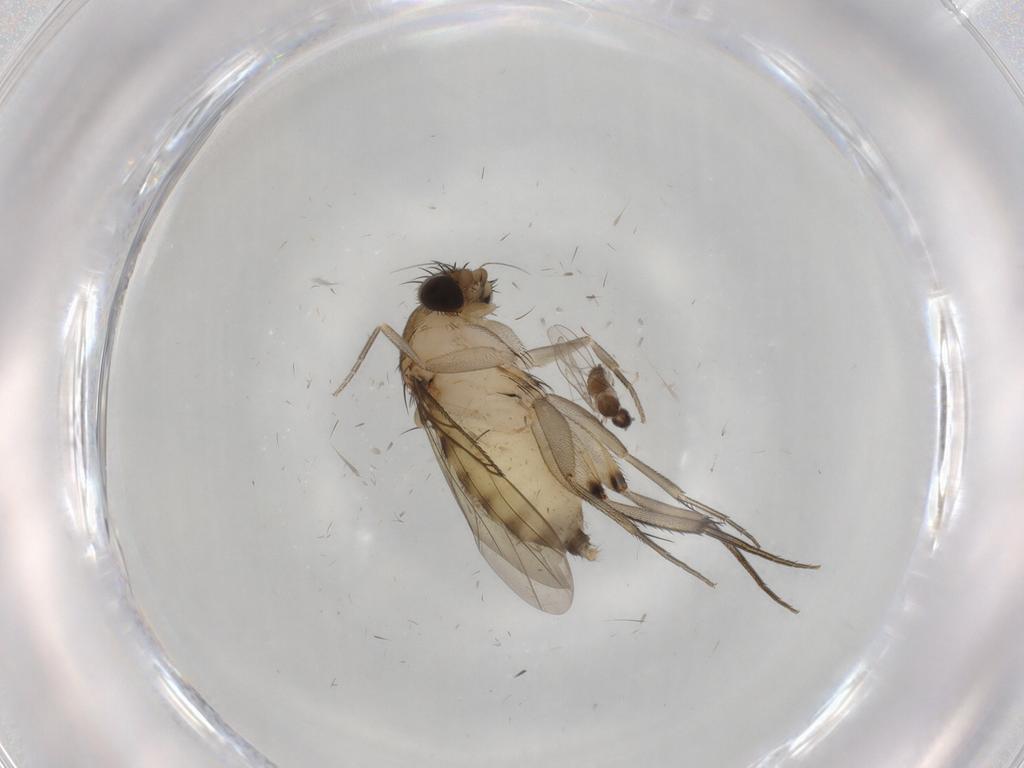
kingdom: Animalia
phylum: Arthropoda
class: Insecta
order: Diptera
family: Phoridae
